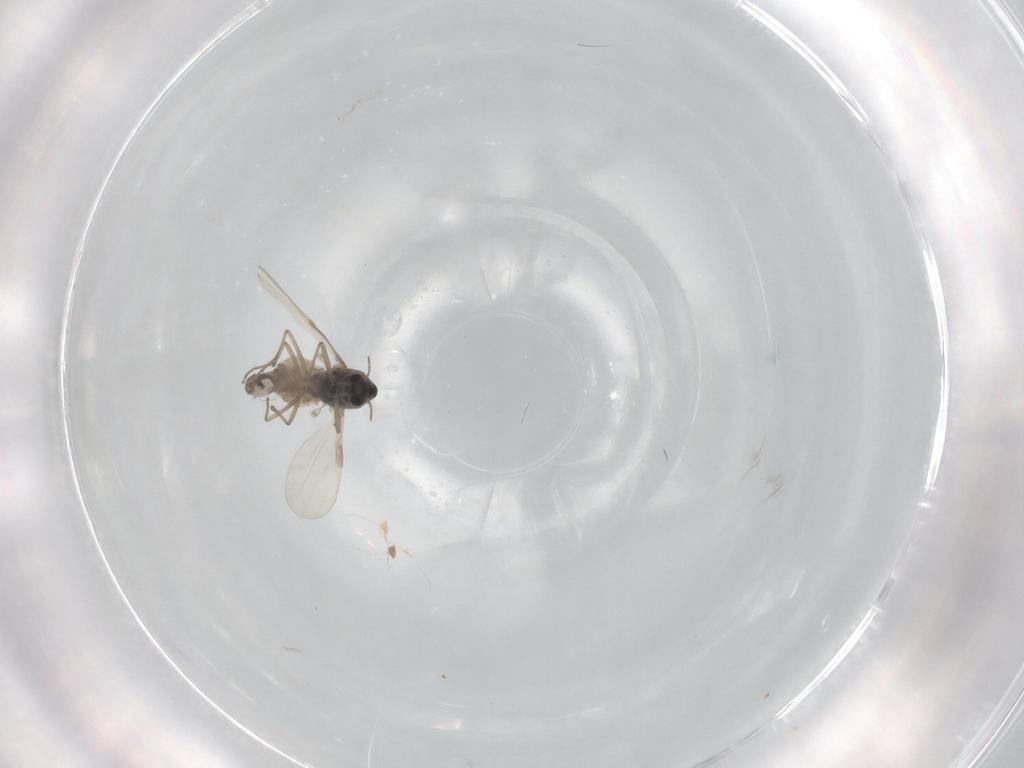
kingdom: Animalia
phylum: Arthropoda
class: Insecta
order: Diptera
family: Chironomidae
